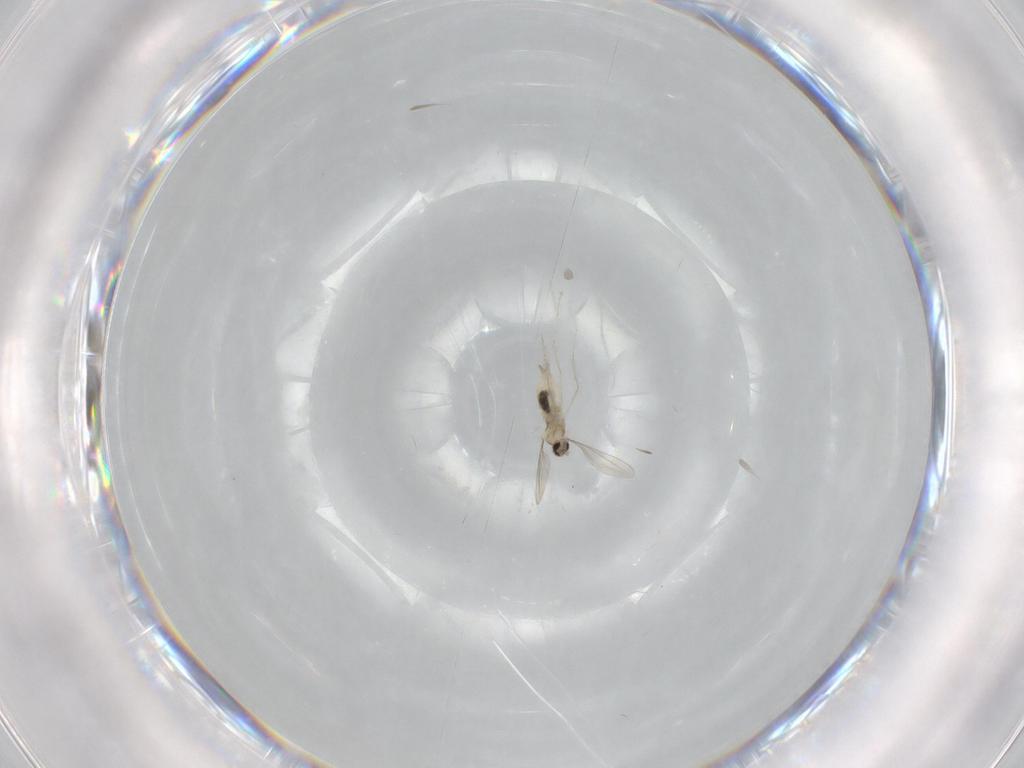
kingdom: Animalia
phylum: Arthropoda
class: Insecta
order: Diptera
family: Cecidomyiidae
